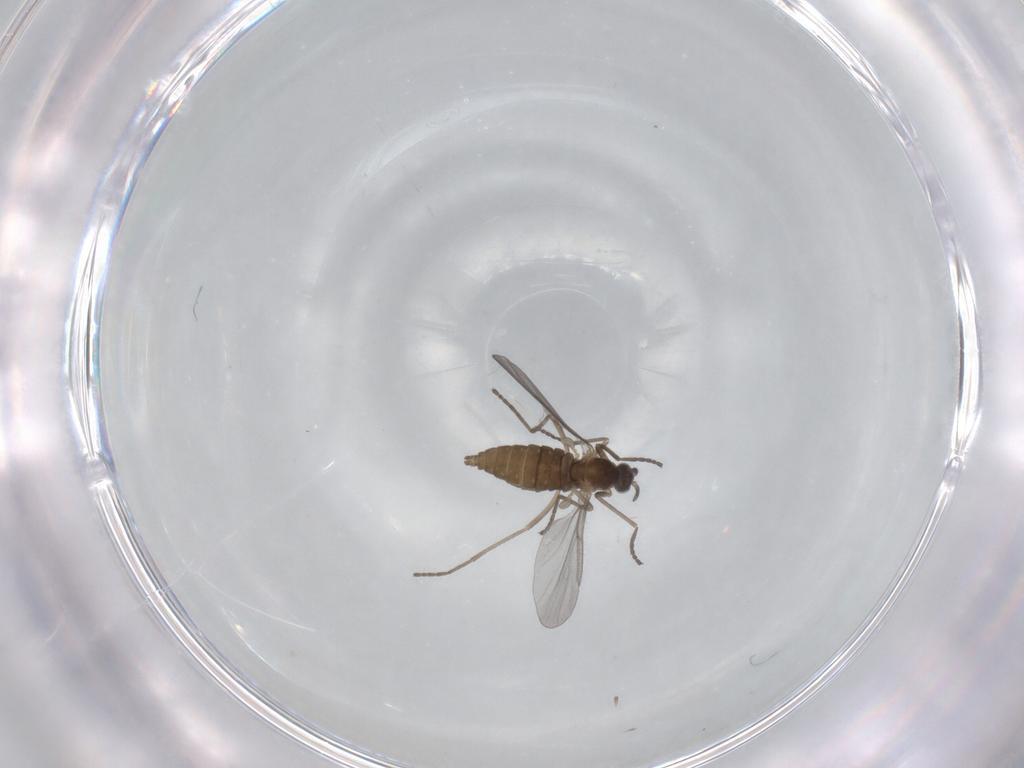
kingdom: Animalia
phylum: Arthropoda
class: Insecta
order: Diptera
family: Cecidomyiidae
